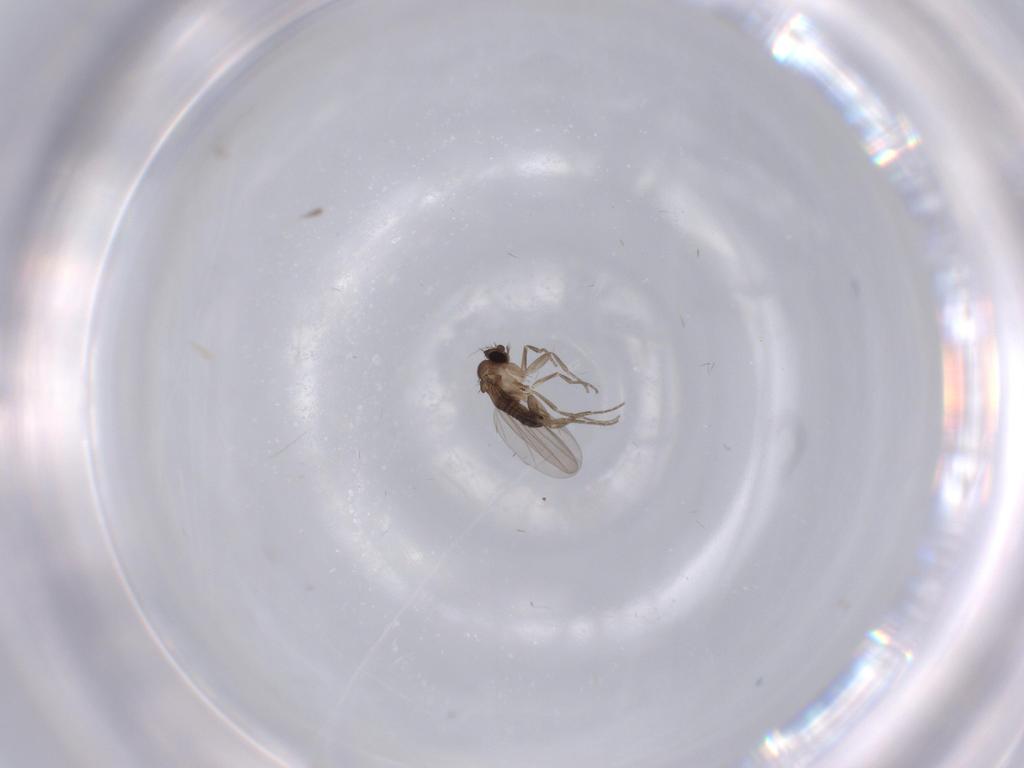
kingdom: Animalia
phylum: Arthropoda
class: Insecta
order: Diptera
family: Phoridae
